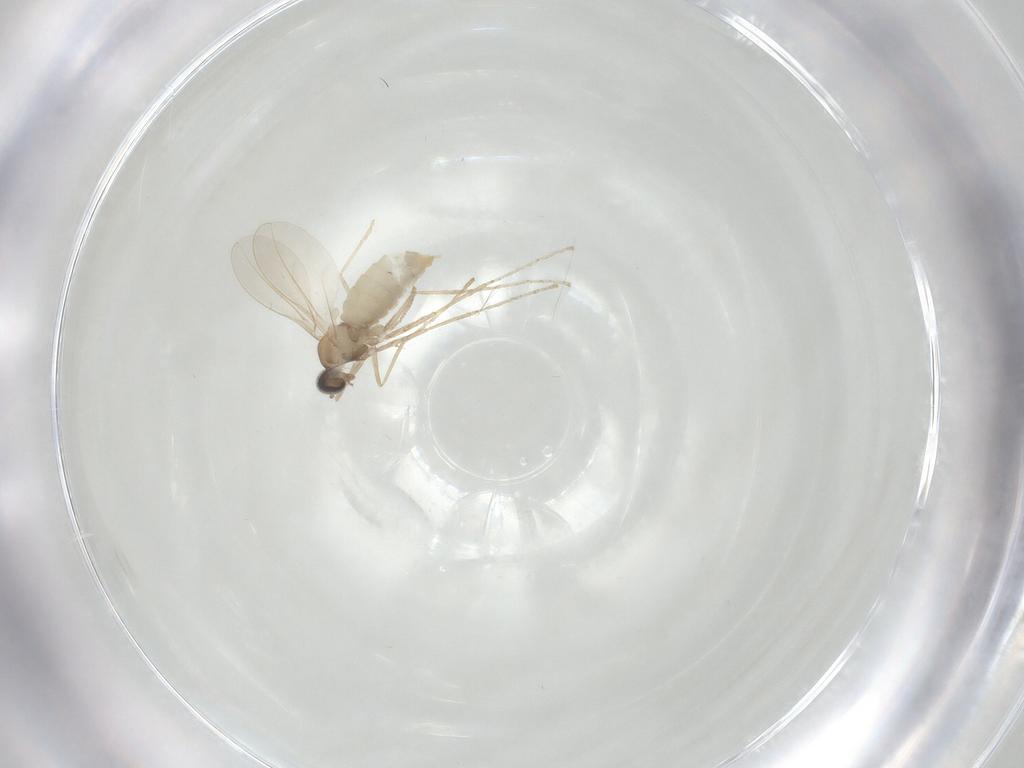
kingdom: Animalia
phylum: Arthropoda
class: Insecta
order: Diptera
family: Cecidomyiidae
